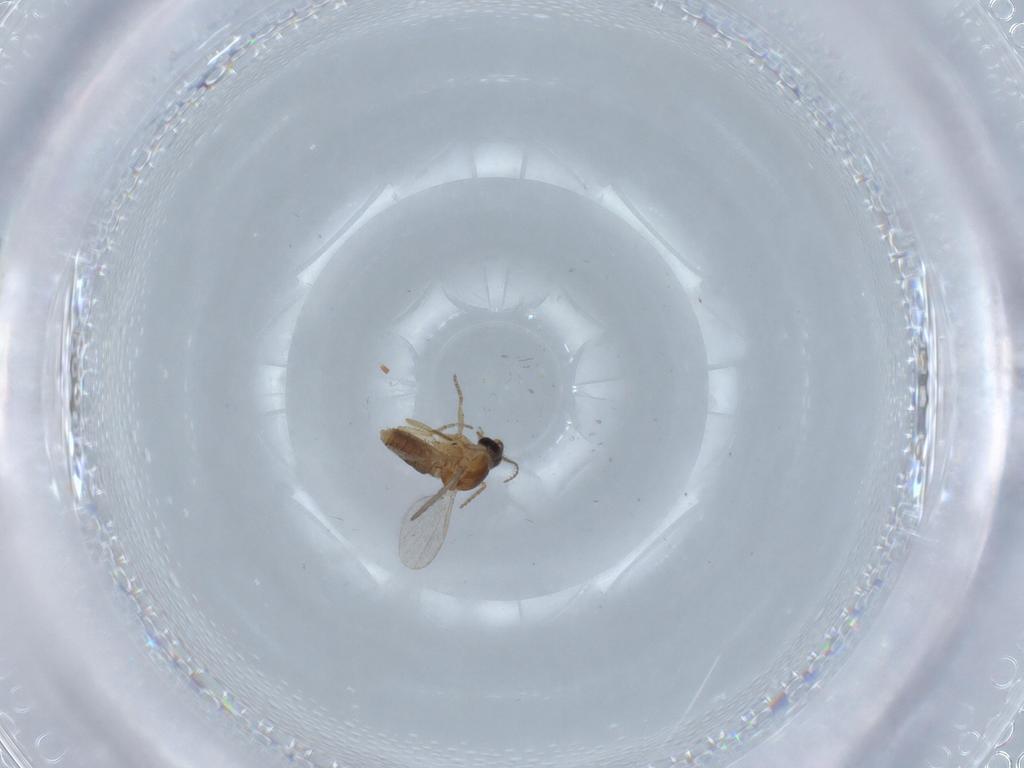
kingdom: Animalia
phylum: Arthropoda
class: Insecta
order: Diptera
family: Ceratopogonidae
